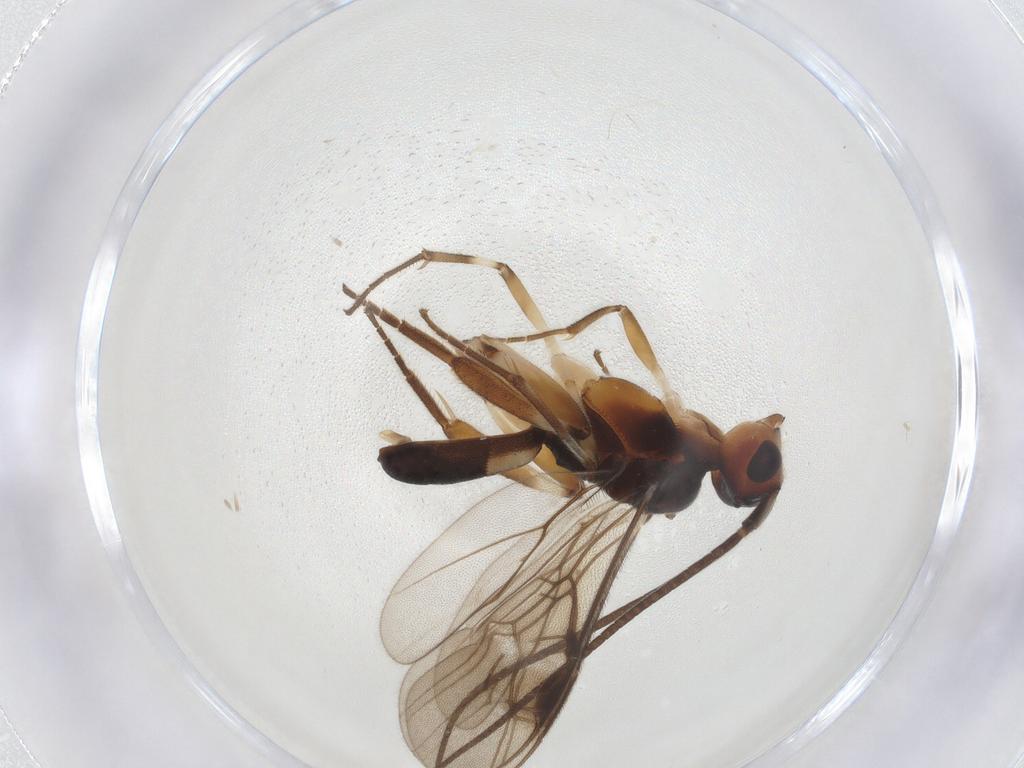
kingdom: Animalia
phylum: Arthropoda
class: Insecta
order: Hymenoptera
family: Braconidae
